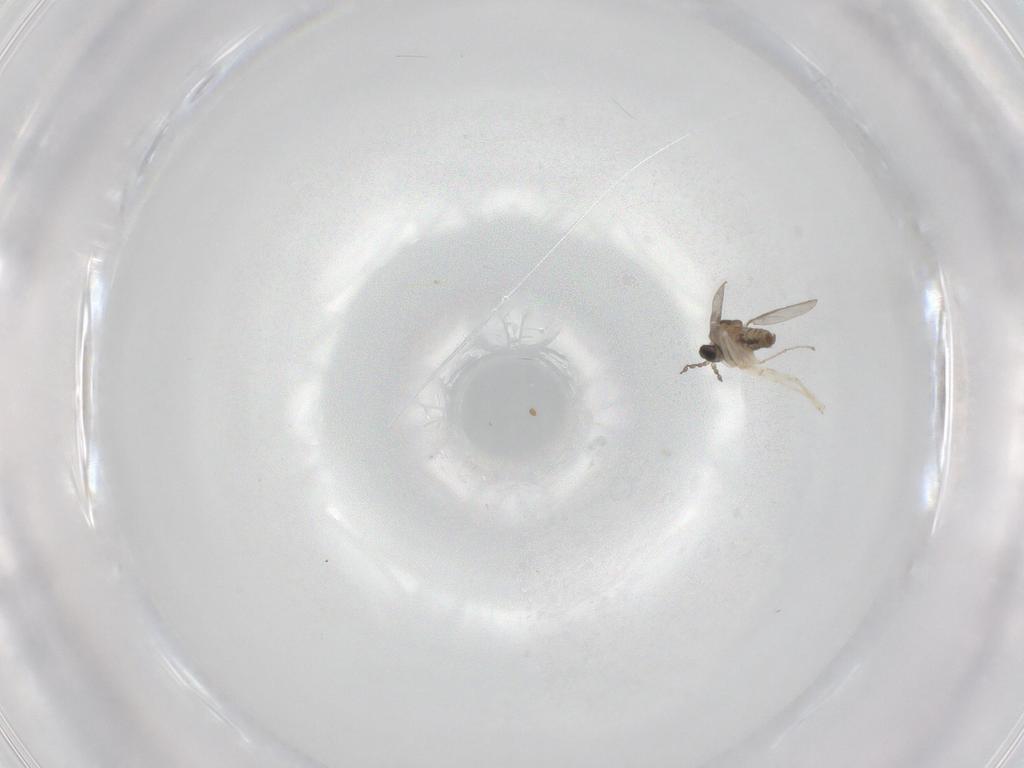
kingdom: Animalia
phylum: Arthropoda
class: Insecta
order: Diptera
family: Cecidomyiidae
